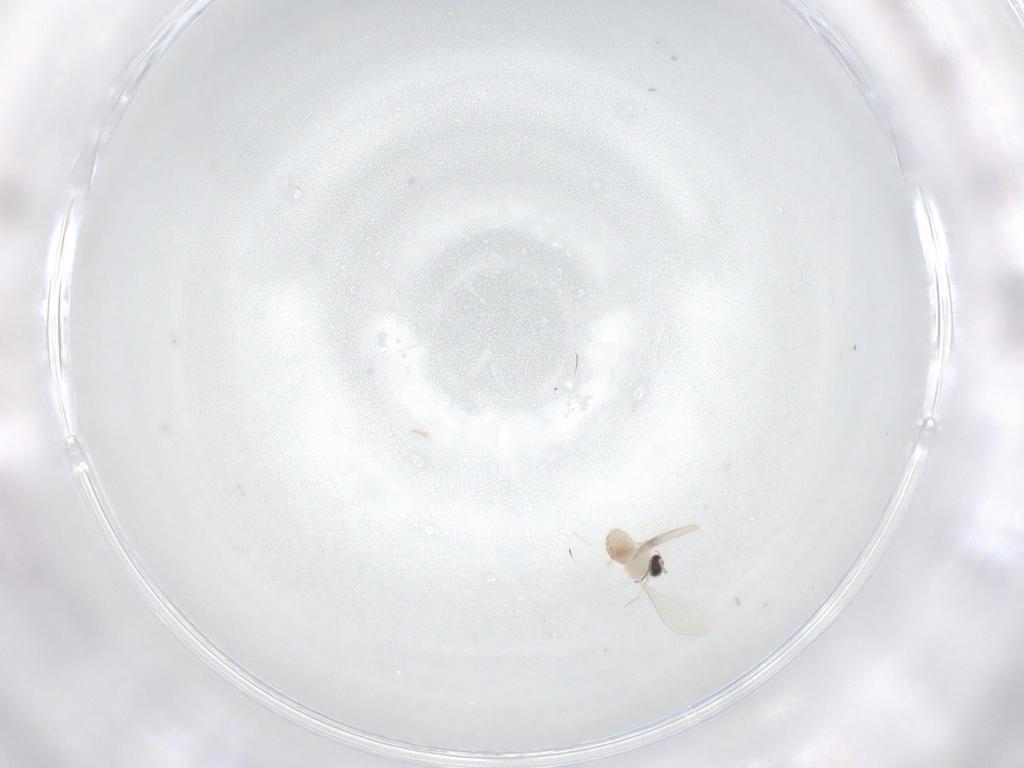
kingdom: Animalia
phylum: Arthropoda
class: Insecta
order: Diptera
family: Cecidomyiidae
